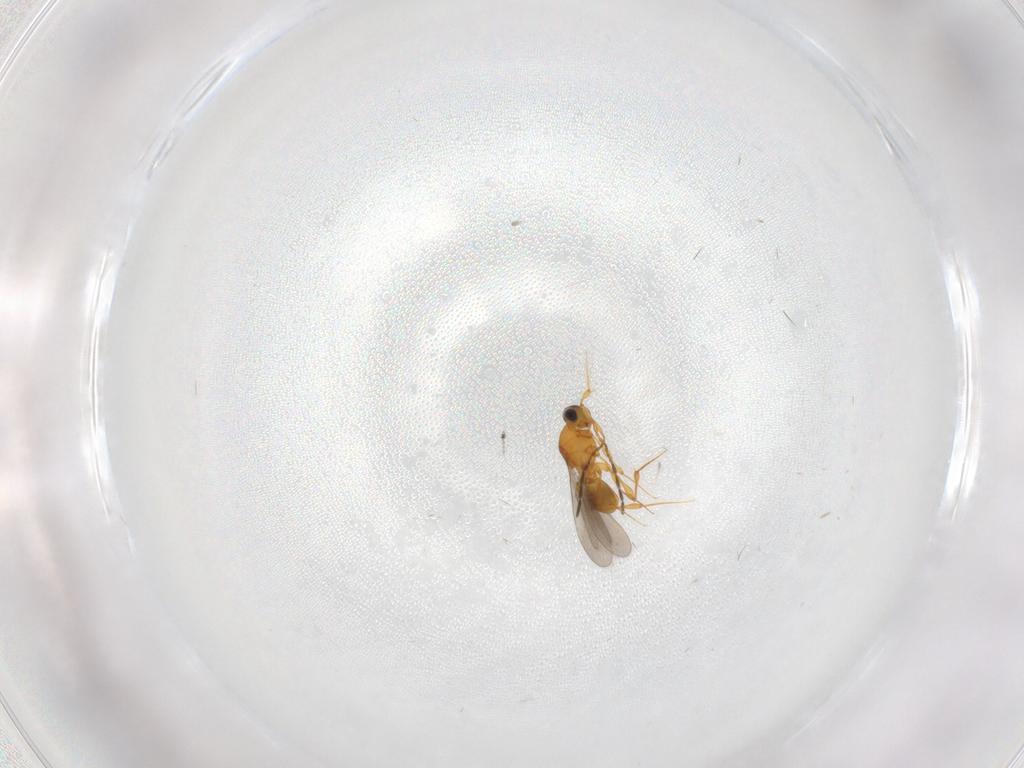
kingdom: Animalia
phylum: Arthropoda
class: Insecta
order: Hymenoptera
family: Platygastridae
